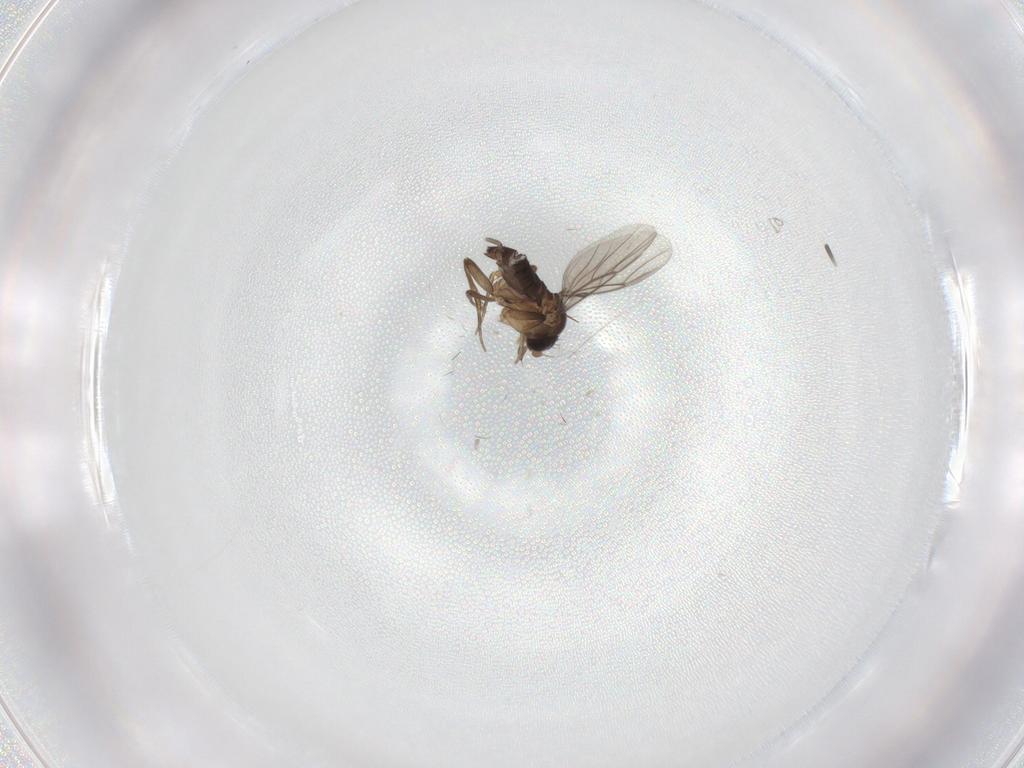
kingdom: Animalia
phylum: Arthropoda
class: Insecta
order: Diptera
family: Phoridae
